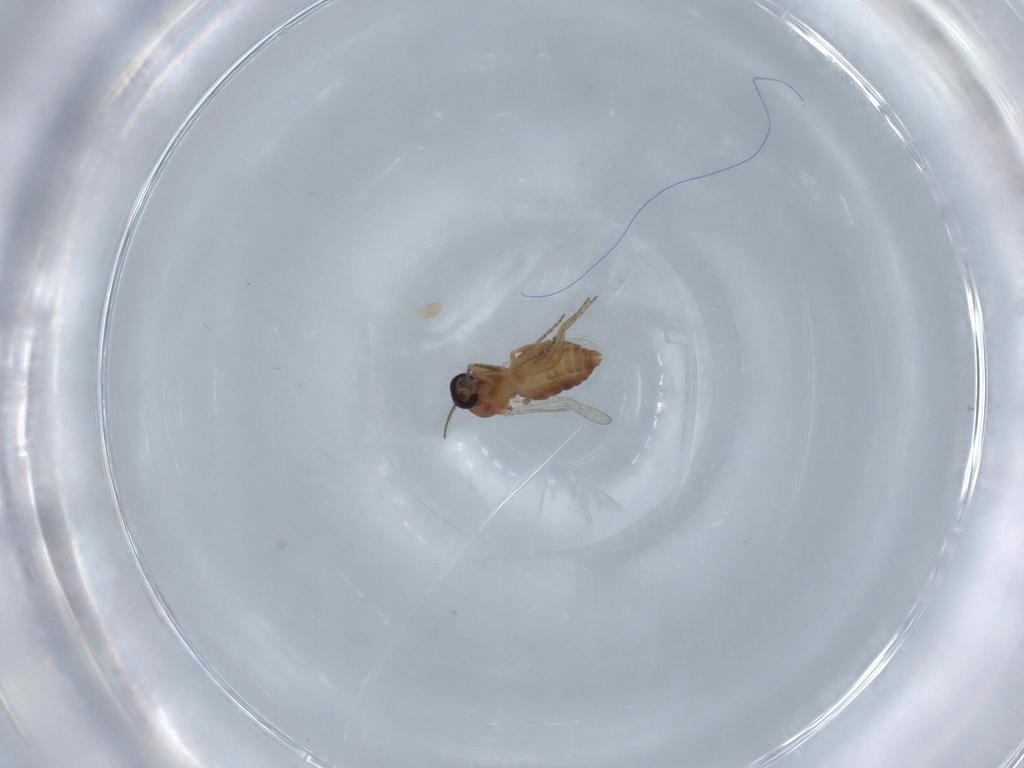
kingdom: Animalia
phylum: Arthropoda
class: Insecta
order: Diptera
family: Ceratopogonidae
